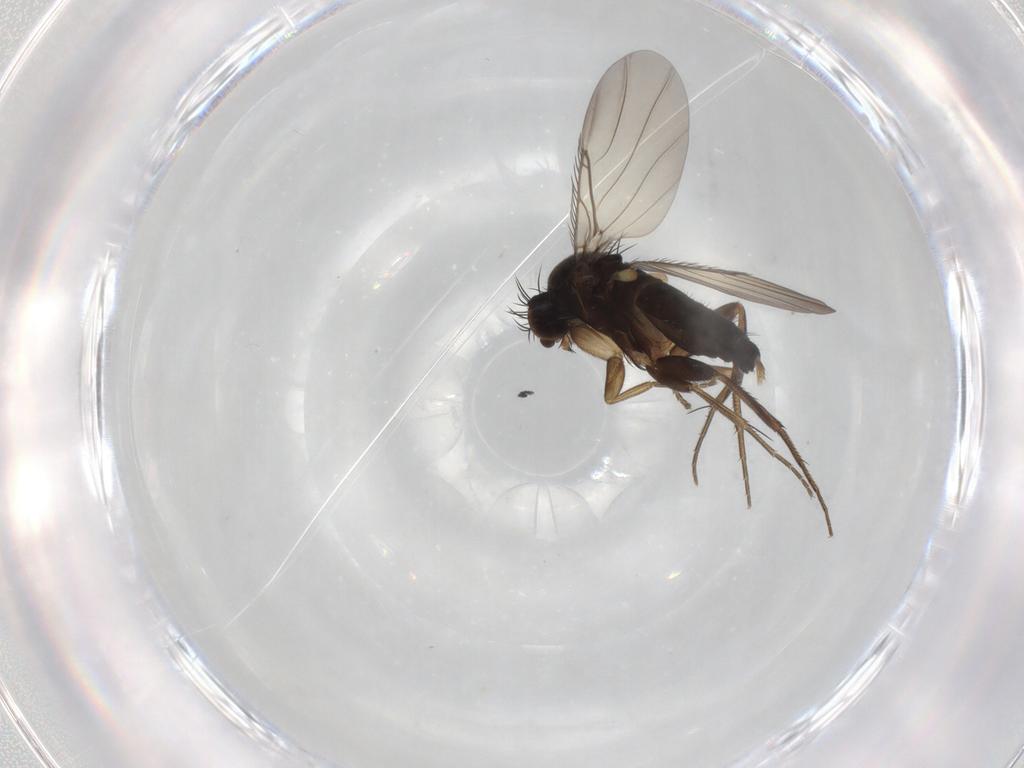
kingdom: Animalia
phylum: Arthropoda
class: Insecta
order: Diptera
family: Phoridae
